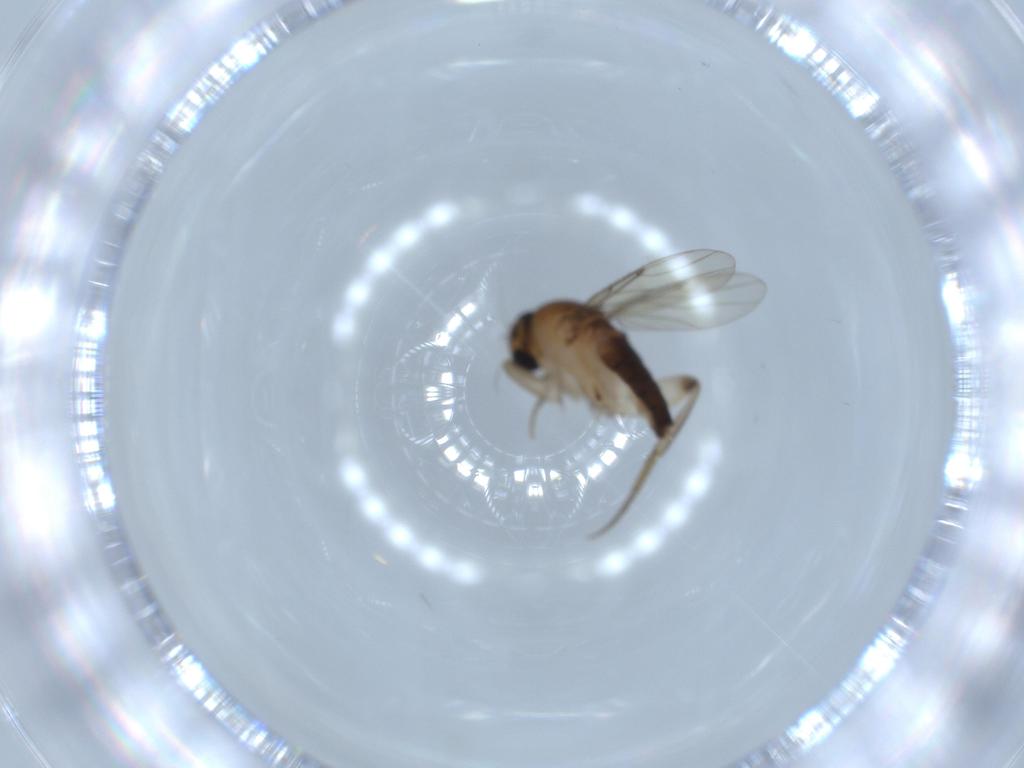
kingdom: Animalia
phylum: Arthropoda
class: Insecta
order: Diptera
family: Phoridae
